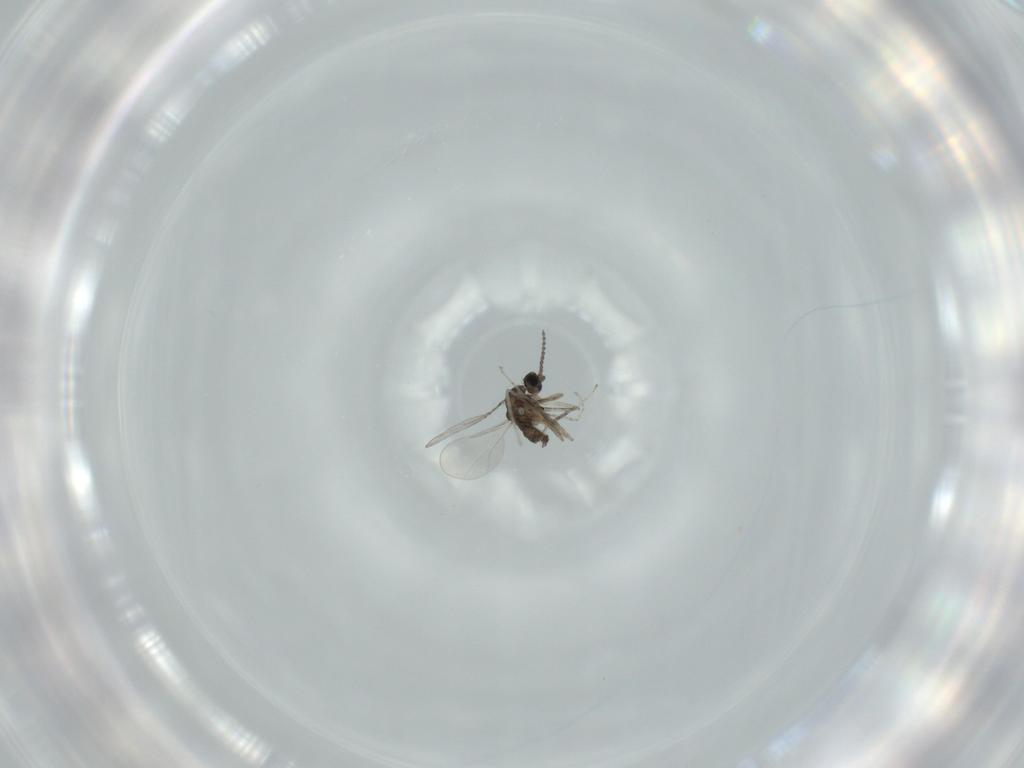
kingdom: Animalia
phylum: Arthropoda
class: Insecta
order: Diptera
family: Cecidomyiidae
